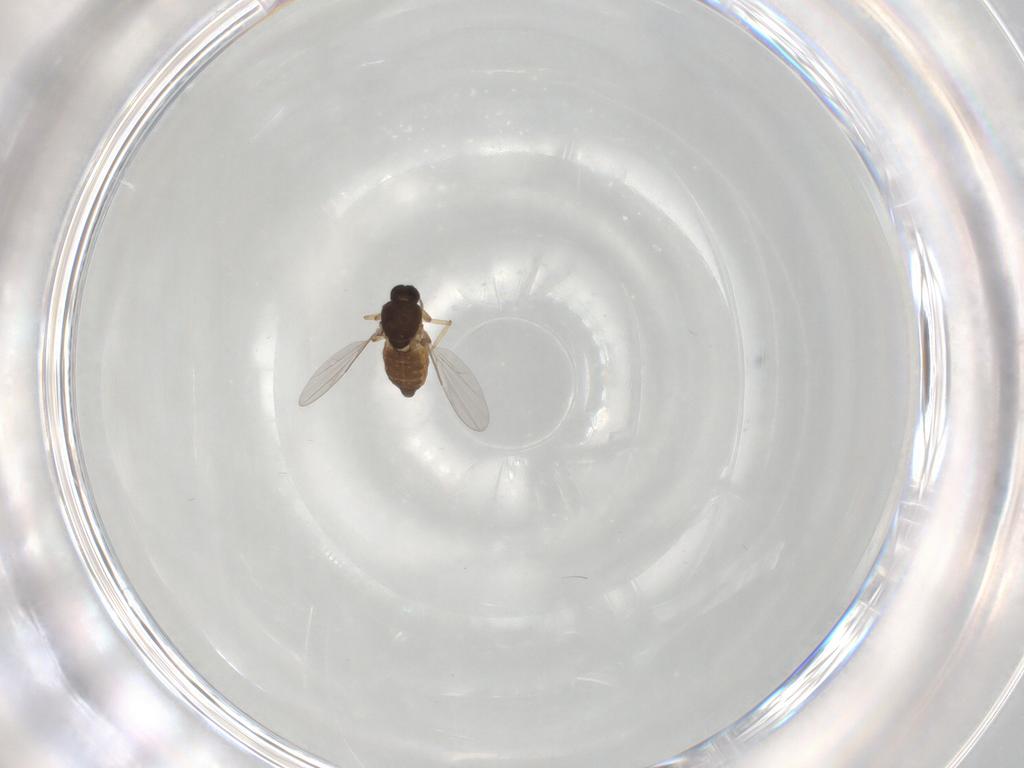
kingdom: Animalia
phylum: Arthropoda
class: Insecta
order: Diptera
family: Ceratopogonidae
